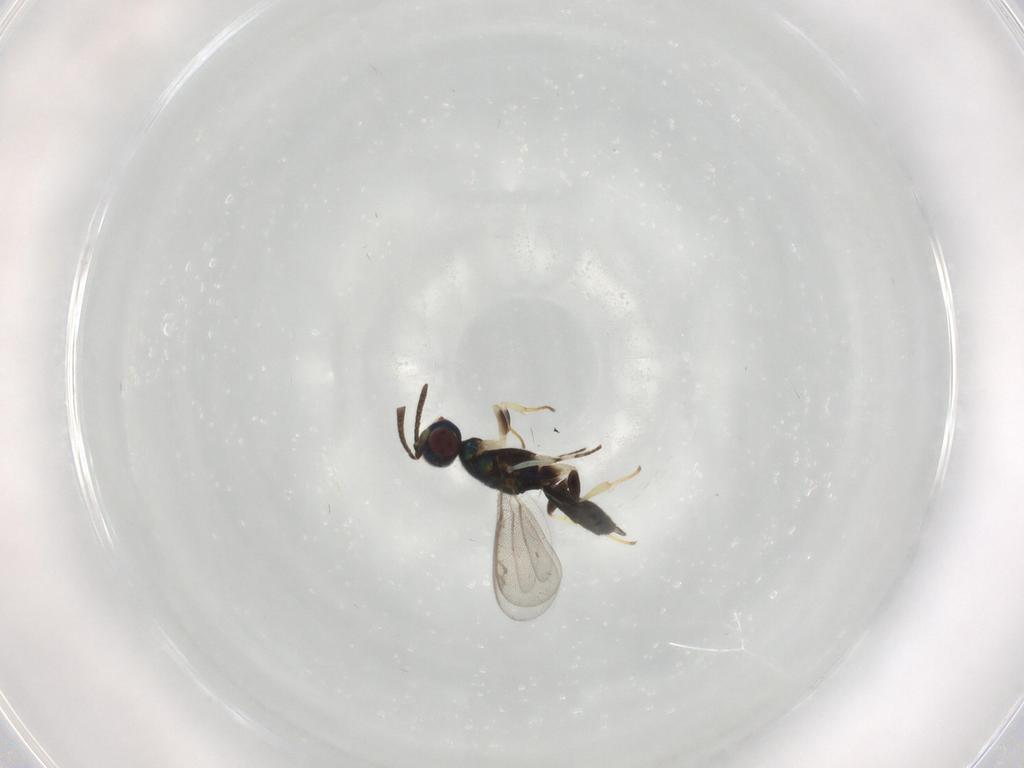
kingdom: Animalia
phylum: Arthropoda
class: Insecta
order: Hymenoptera
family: Eupelmidae
